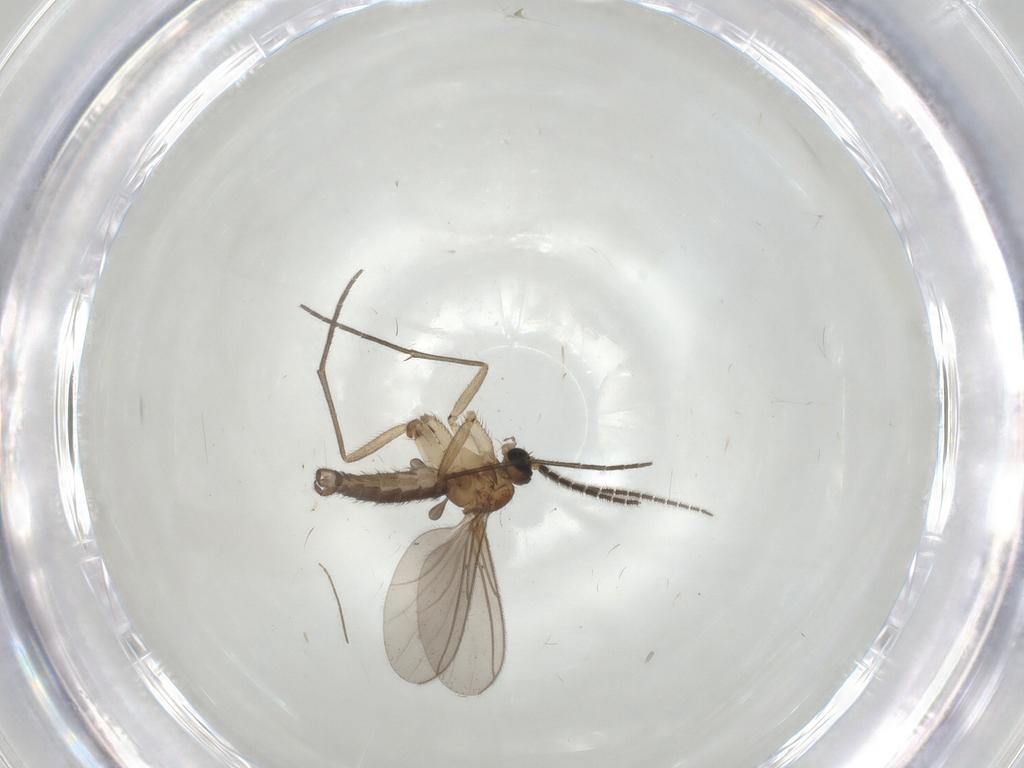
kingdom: Animalia
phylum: Arthropoda
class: Insecta
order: Diptera
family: Sciaridae
